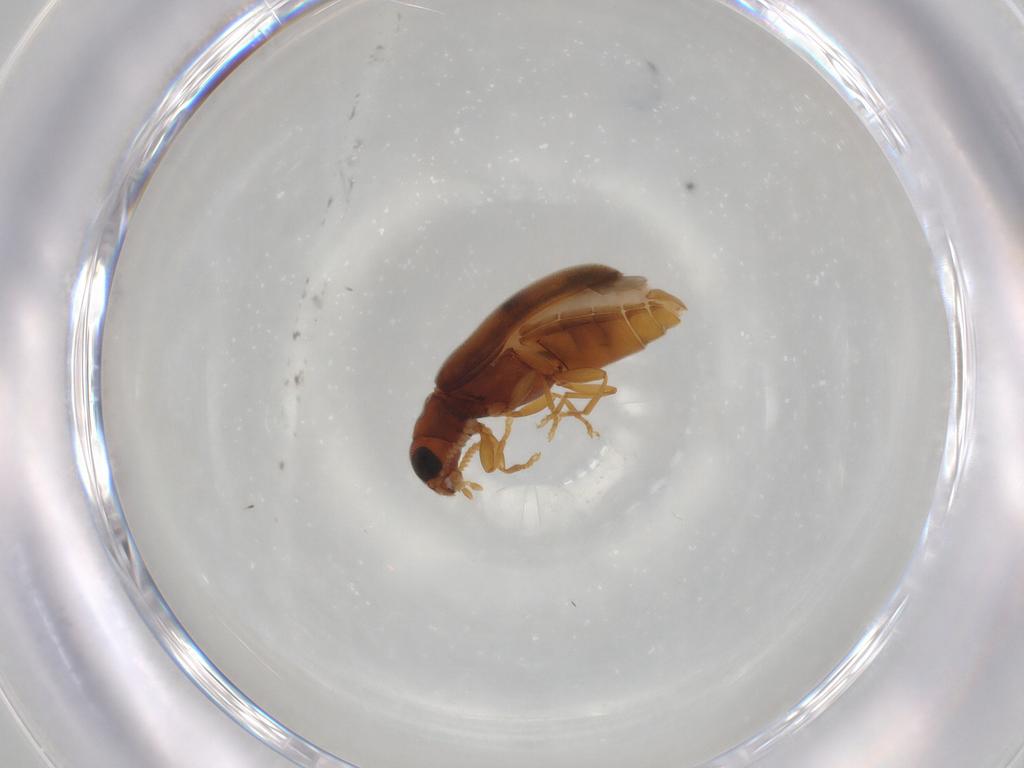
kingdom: Animalia
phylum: Arthropoda
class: Insecta
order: Coleoptera
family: Mycteridae
